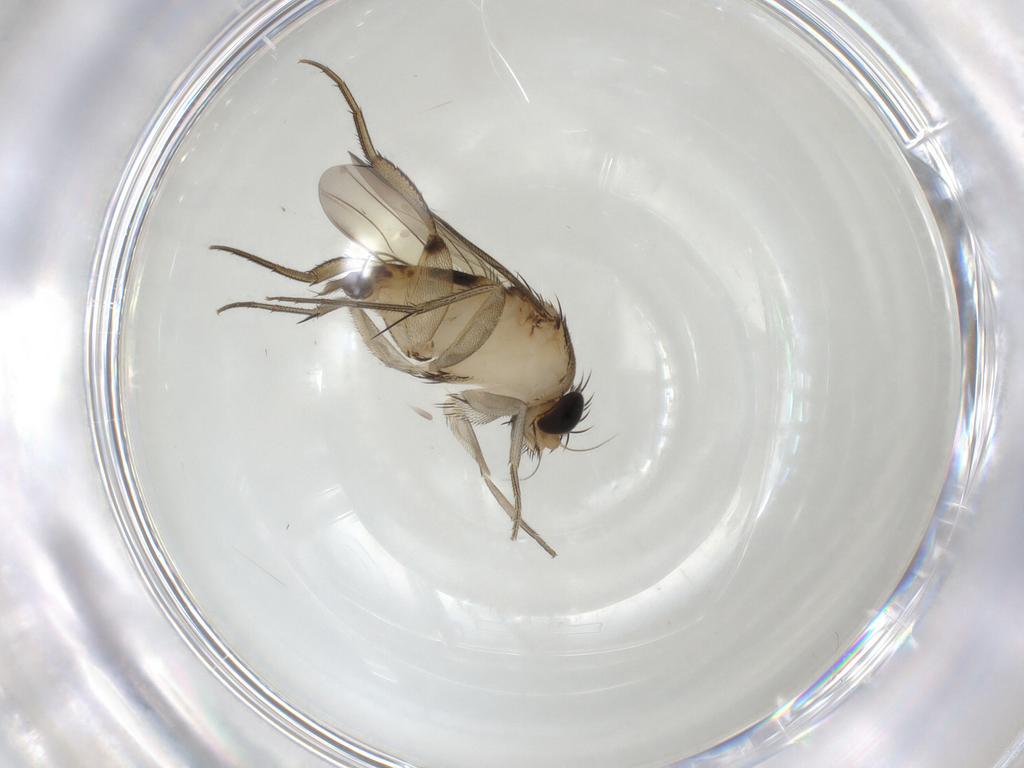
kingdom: Animalia
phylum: Arthropoda
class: Insecta
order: Diptera
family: Phoridae
